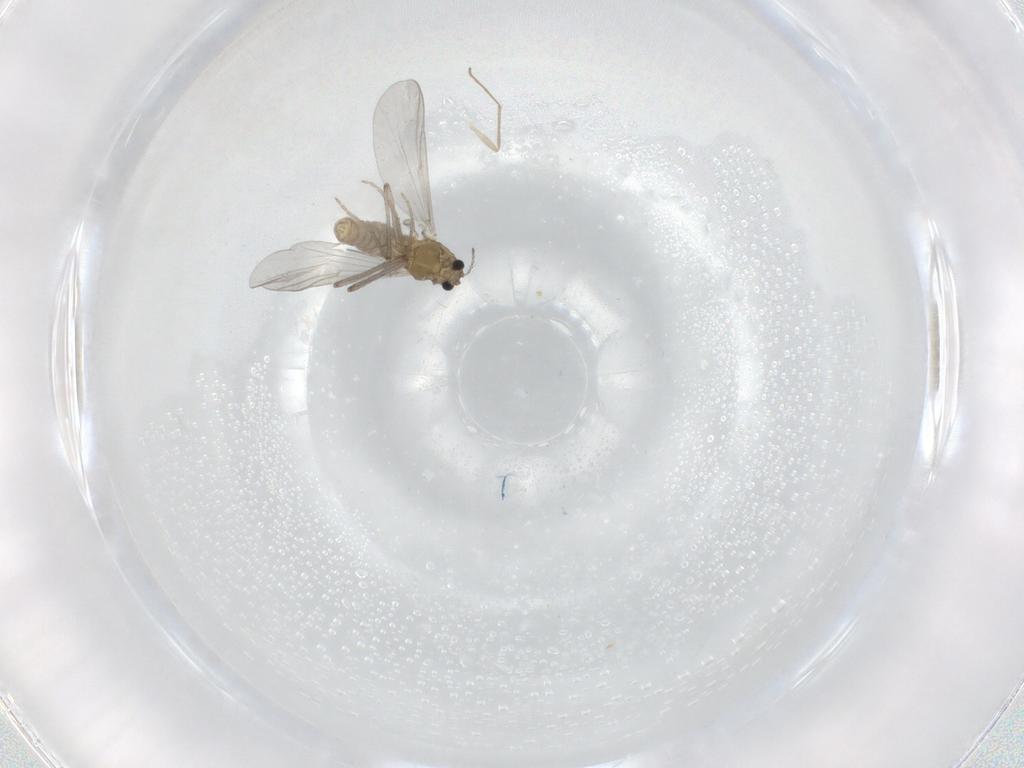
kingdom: Animalia
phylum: Arthropoda
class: Insecta
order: Diptera
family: Chironomidae
